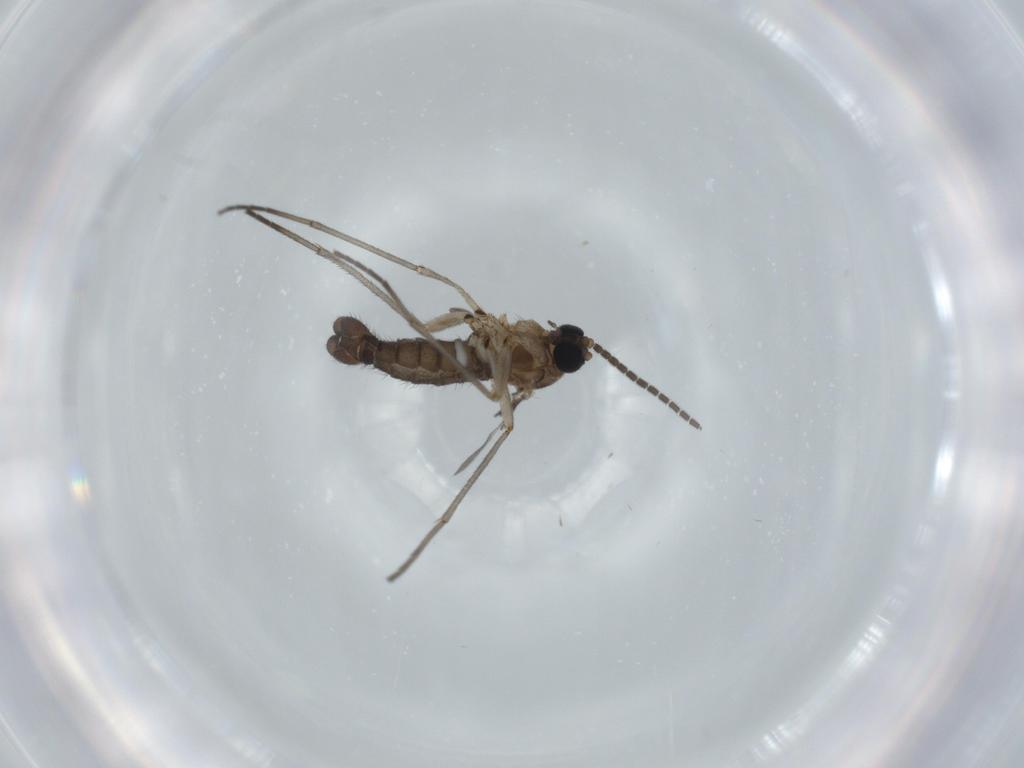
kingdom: Animalia
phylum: Arthropoda
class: Insecta
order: Diptera
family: Sciaridae
